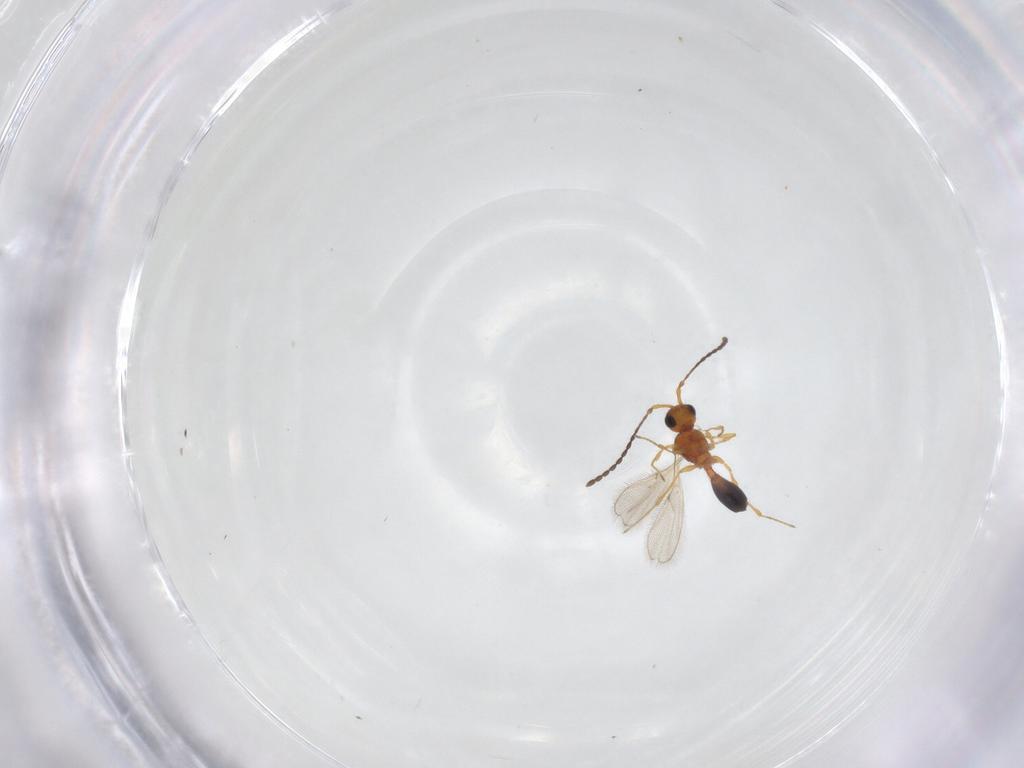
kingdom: Animalia
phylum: Arthropoda
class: Insecta
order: Hymenoptera
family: Diapriidae
